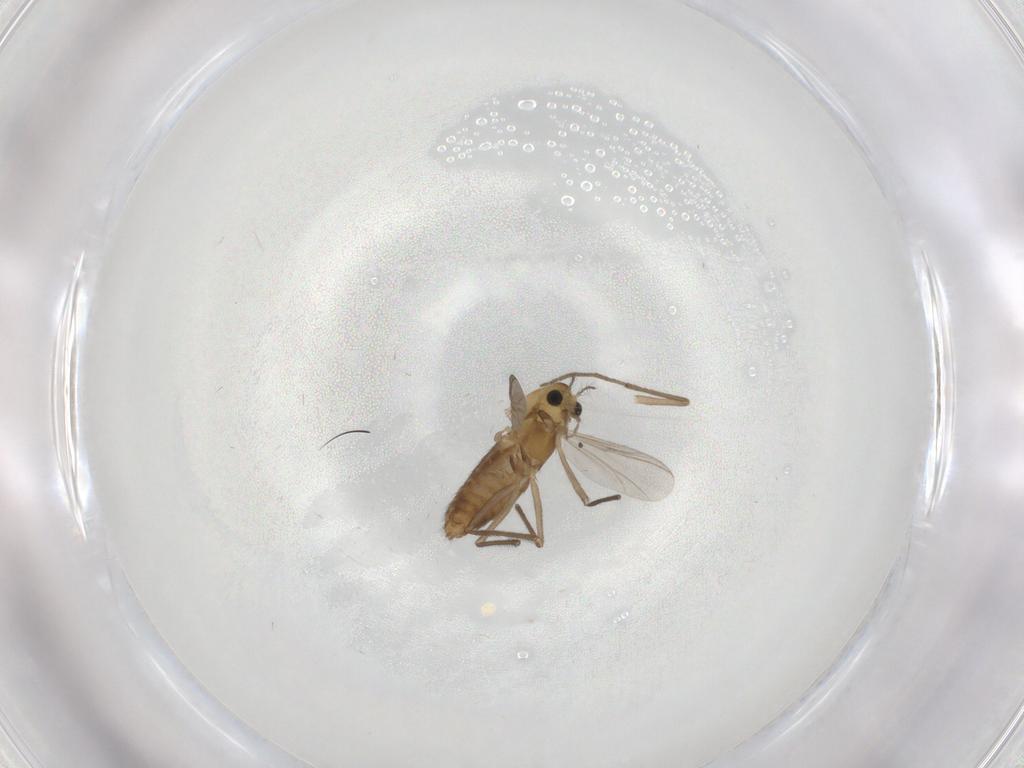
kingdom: Animalia
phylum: Arthropoda
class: Insecta
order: Diptera
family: Chironomidae
